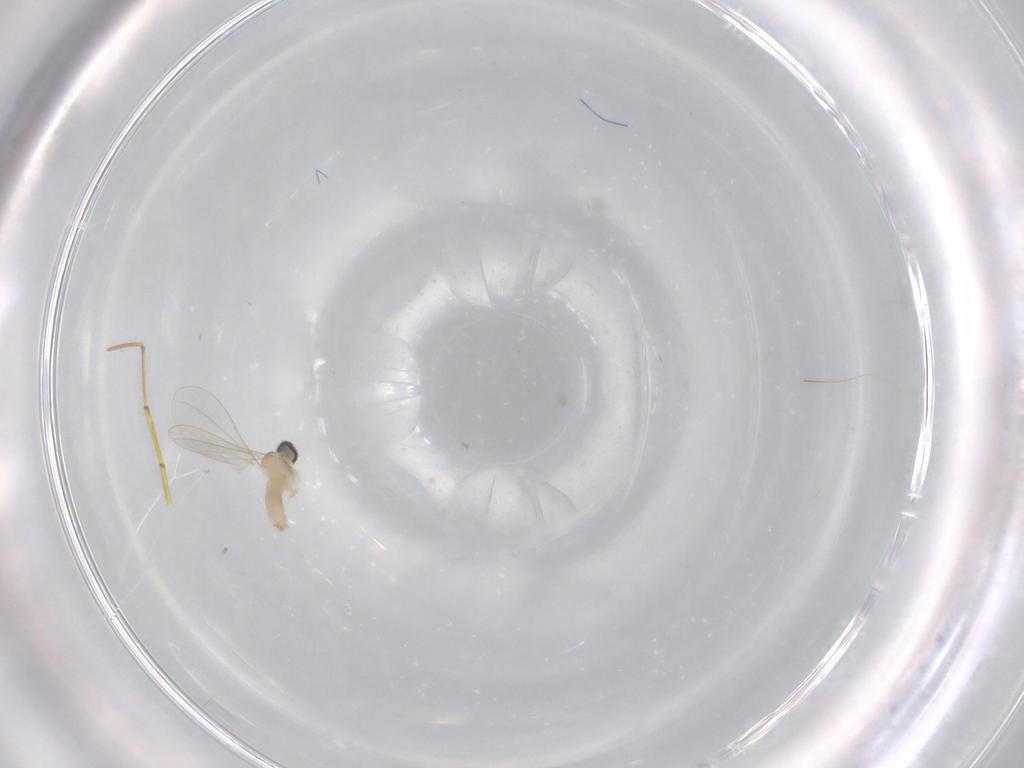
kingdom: Animalia
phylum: Arthropoda
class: Insecta
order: Diptera
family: Cecidomyiidae
